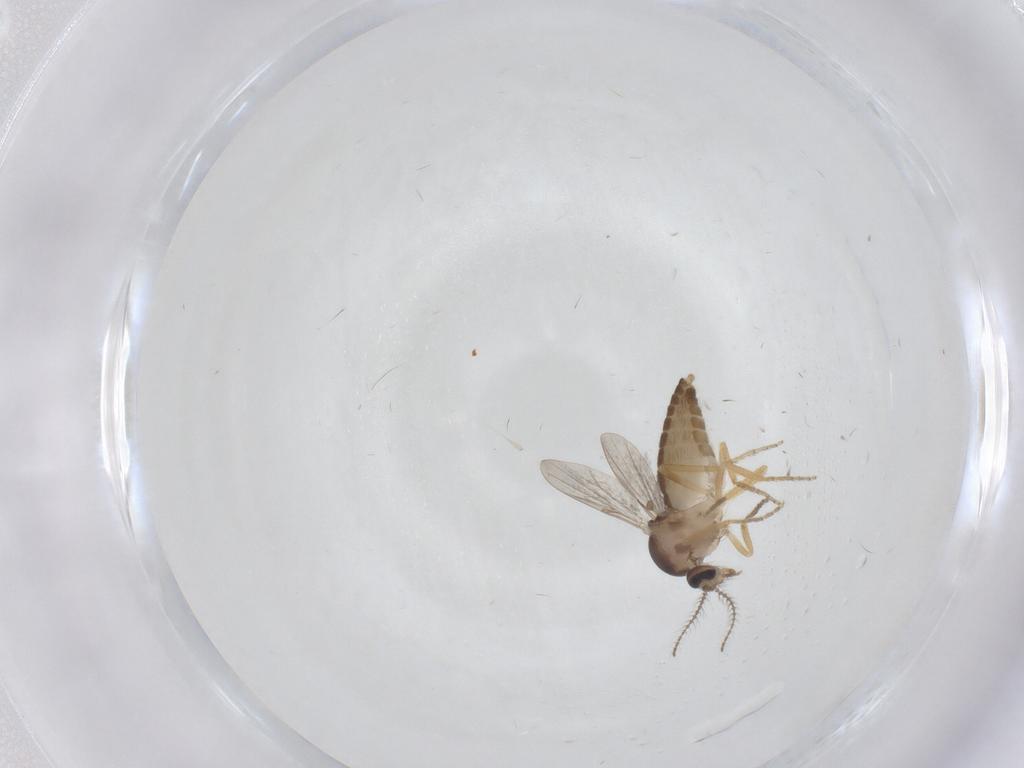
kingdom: Animalia
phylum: Arthropoda
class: Insecta
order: Diptera
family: Ceratopogonidae
